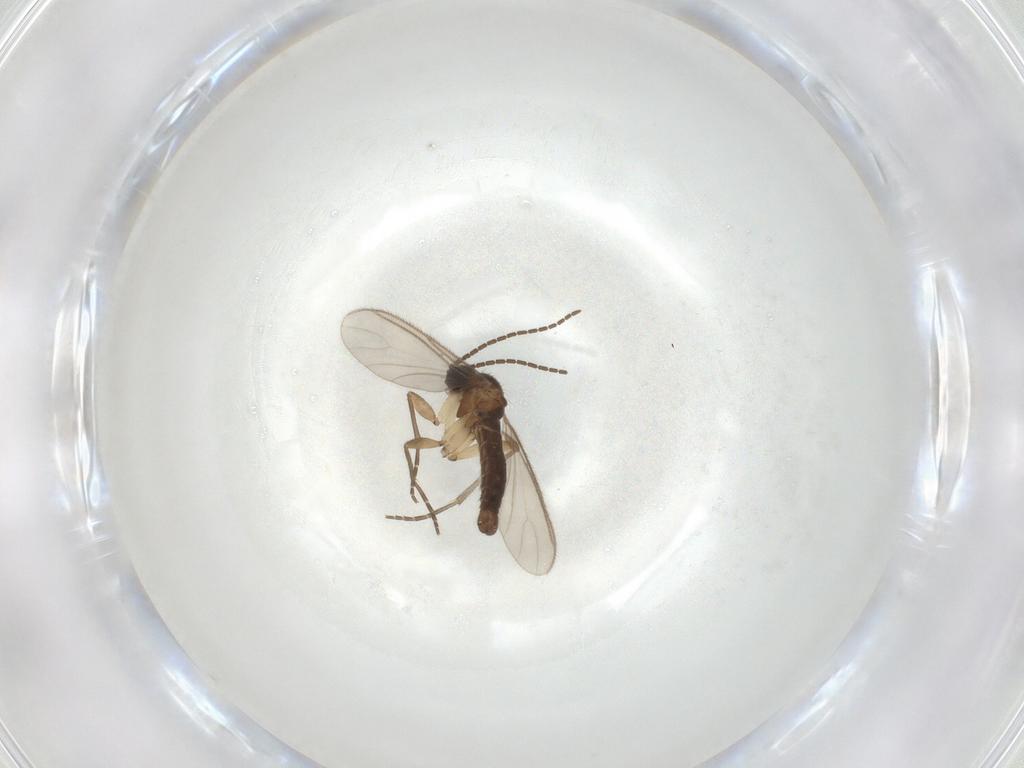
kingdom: Animalia
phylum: Arthropoda
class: Insecta
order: Diptera
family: Sciaridae
